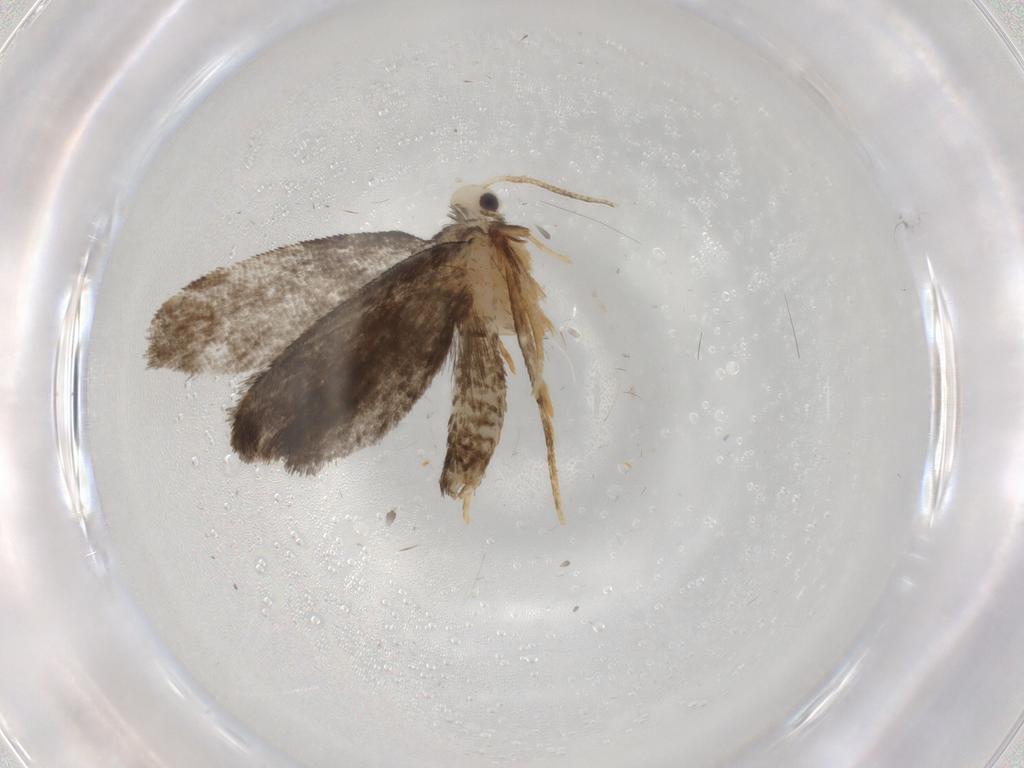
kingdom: Animalia
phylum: Arthropoda
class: Insecta
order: Lepidoptera
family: Psychidae
